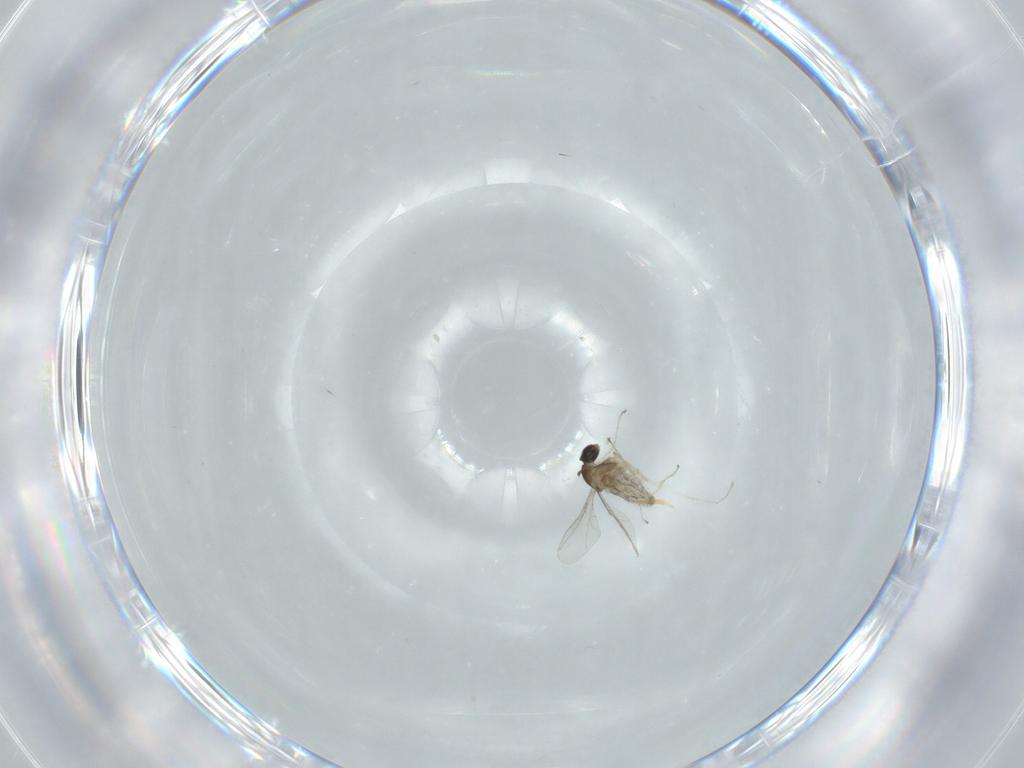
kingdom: Animalia
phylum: Arthropoda
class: Insecta
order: Diptera
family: Cecidomyiidae
